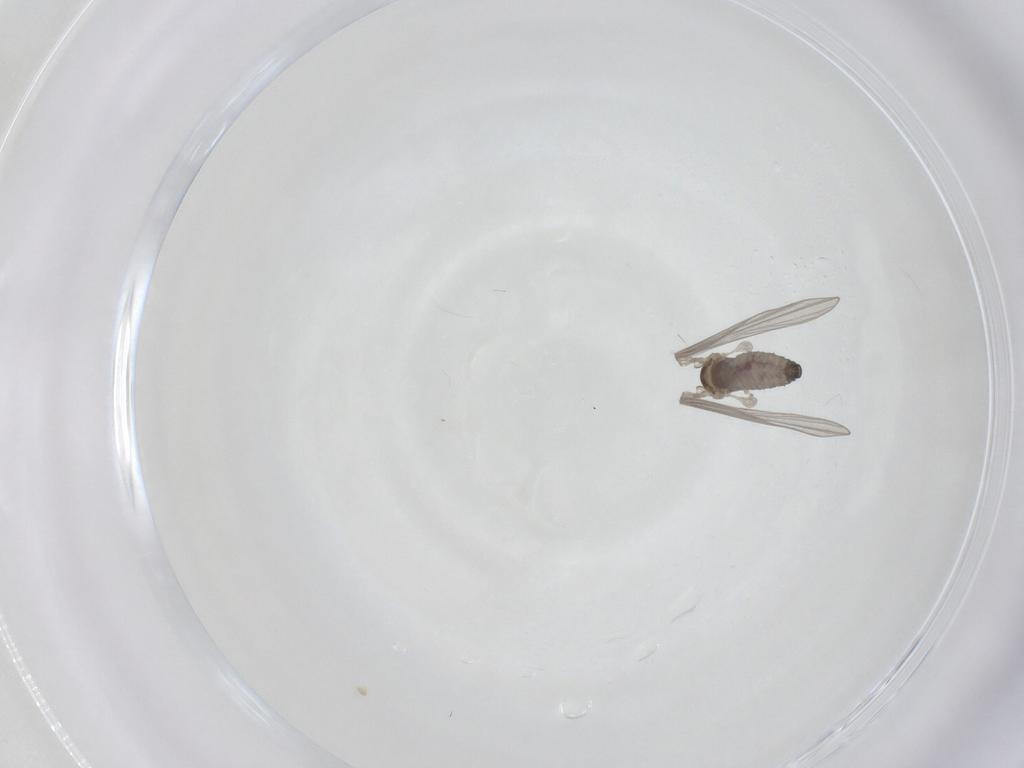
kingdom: Animalia
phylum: Arthropoda
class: Insecta
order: Diptera
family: Psychodidae
